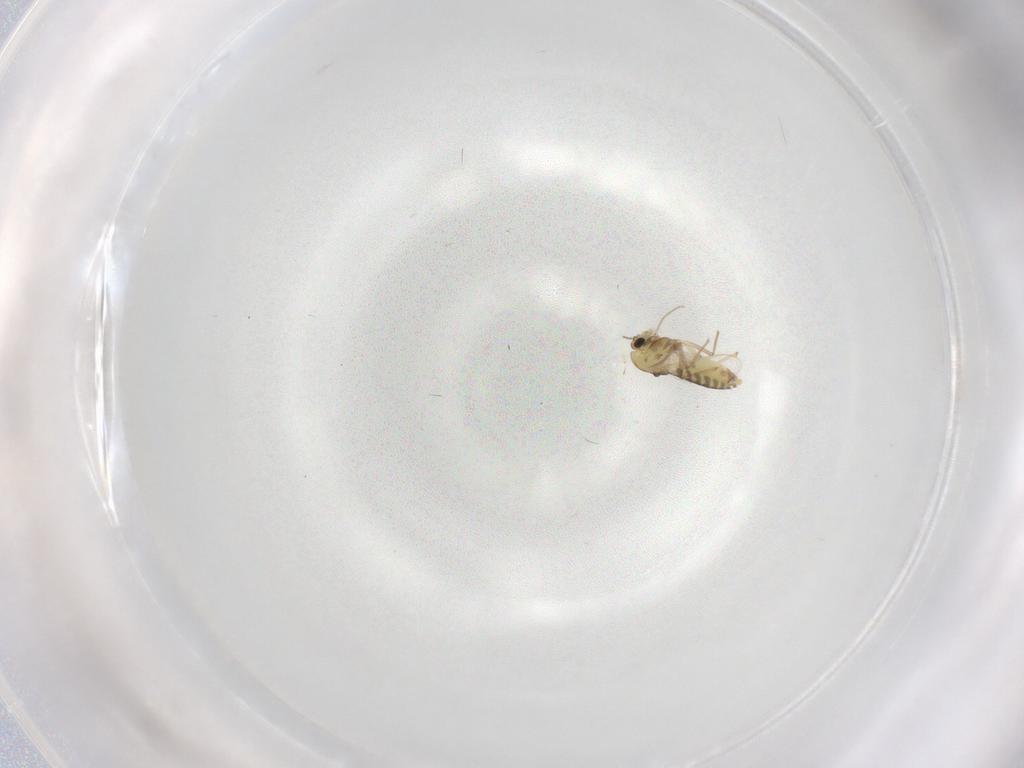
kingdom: Animalia
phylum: Arthropoda
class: Insecta
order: Diptera
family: Chironomidae
